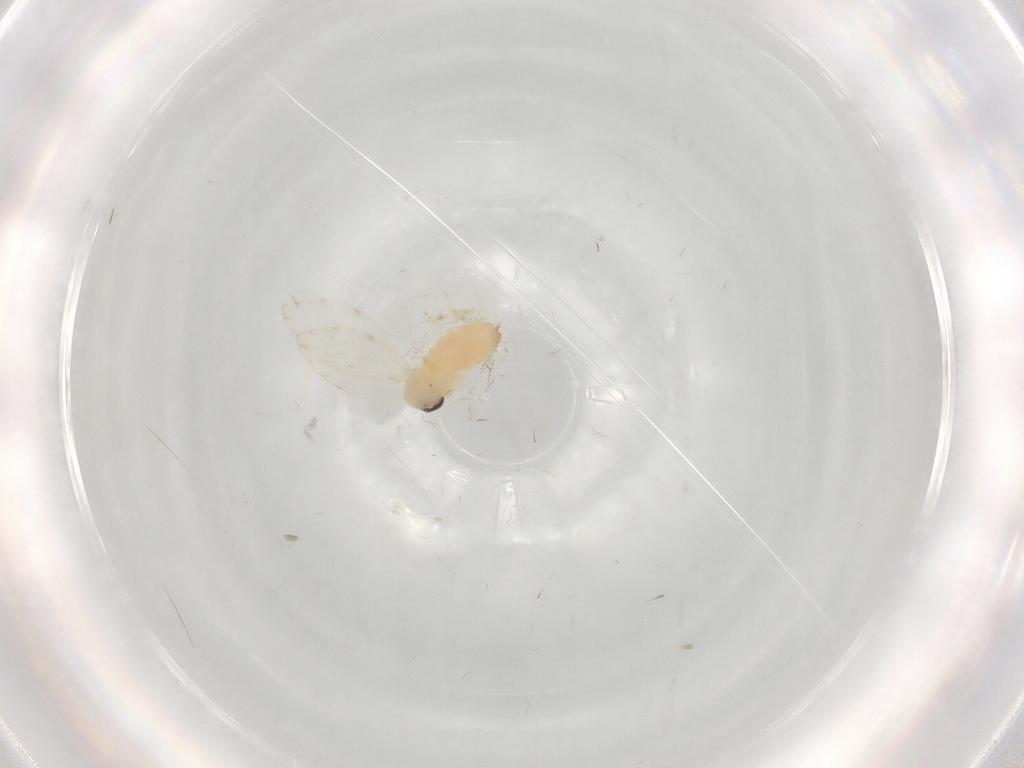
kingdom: Animalia
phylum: Arthropoda
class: Insecta
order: Diptera
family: Psychodidae
